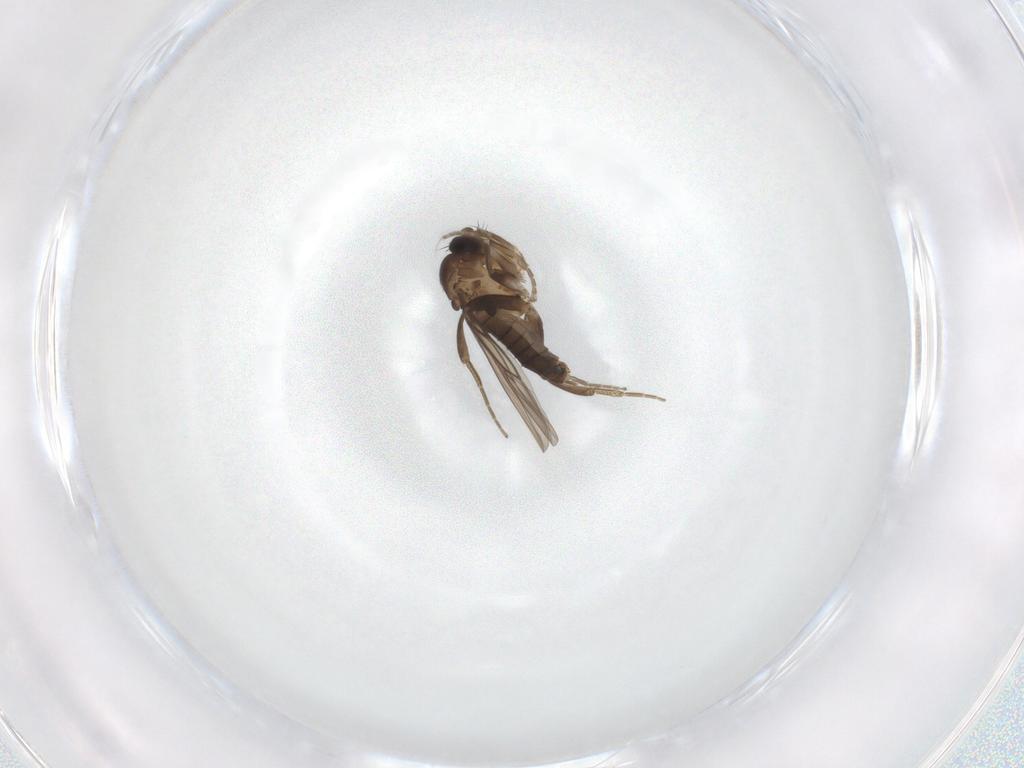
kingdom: Animalia
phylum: Arthropoda
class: Insecta
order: Diptera
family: Phoridae
